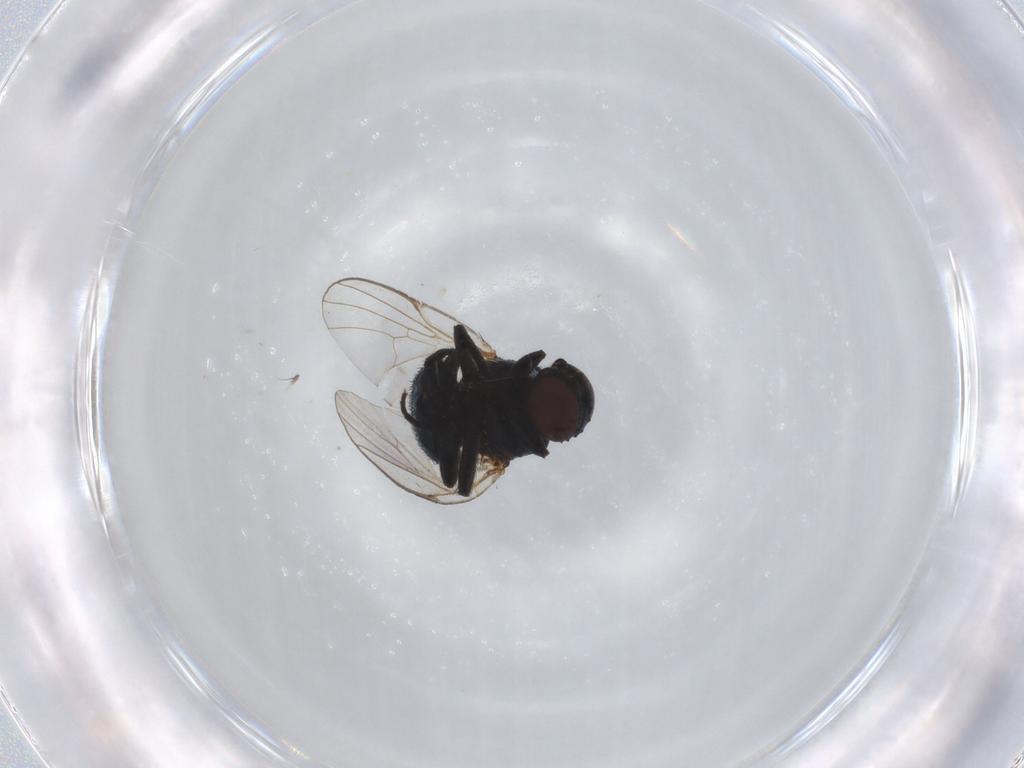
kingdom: Animalia
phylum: Arthropoda
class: Insecta
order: Diptera
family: Agromyzidae
